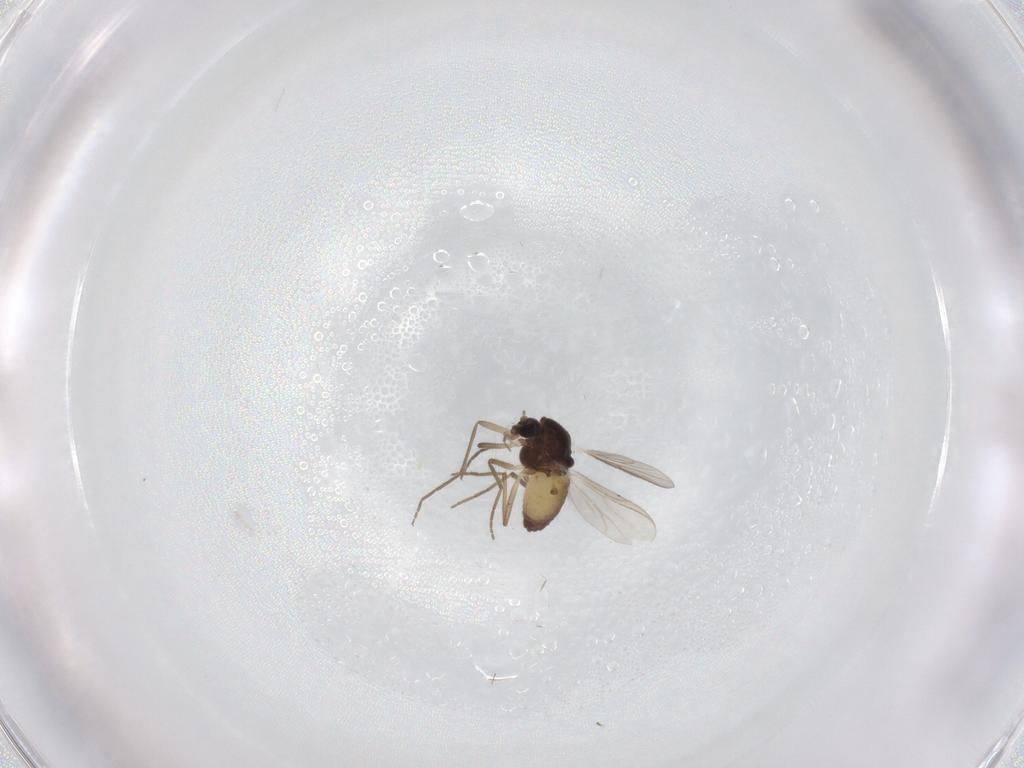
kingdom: Animalia
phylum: Arthropoda
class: Insecta
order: Diptera
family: Chironomidae
